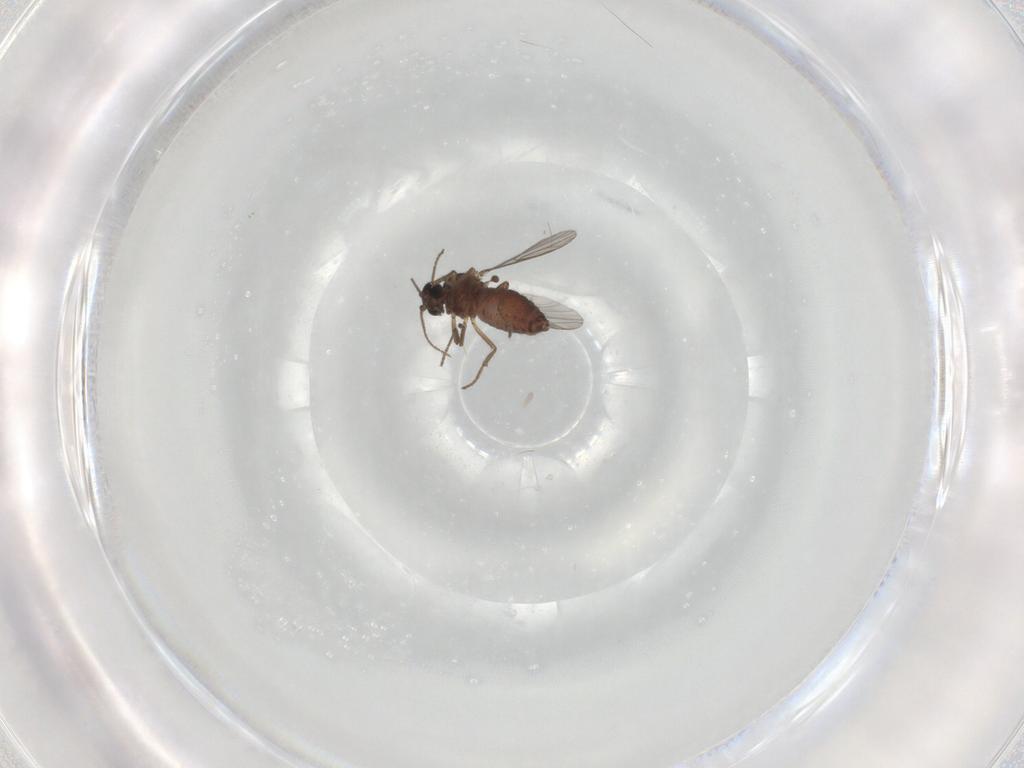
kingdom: Animalia
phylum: Arthropoda
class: Insecta
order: Diptera
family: Ceratopogonidae
